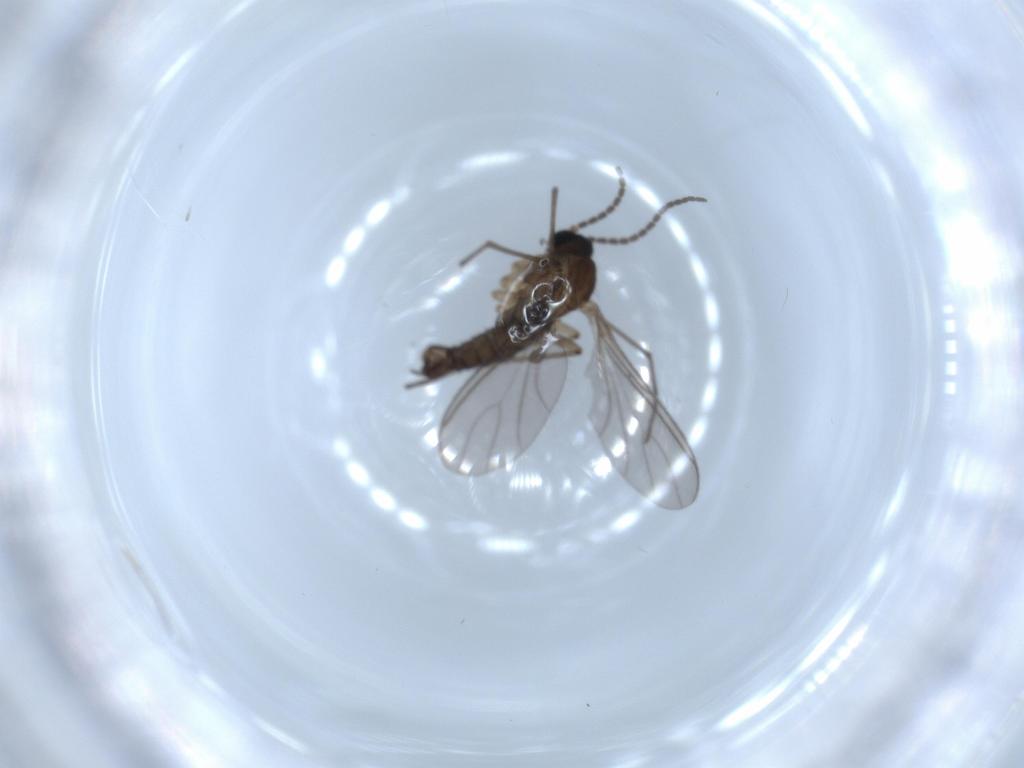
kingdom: Animalia
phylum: Arthropoda
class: Insecta
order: Diptera
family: Sciaridae
